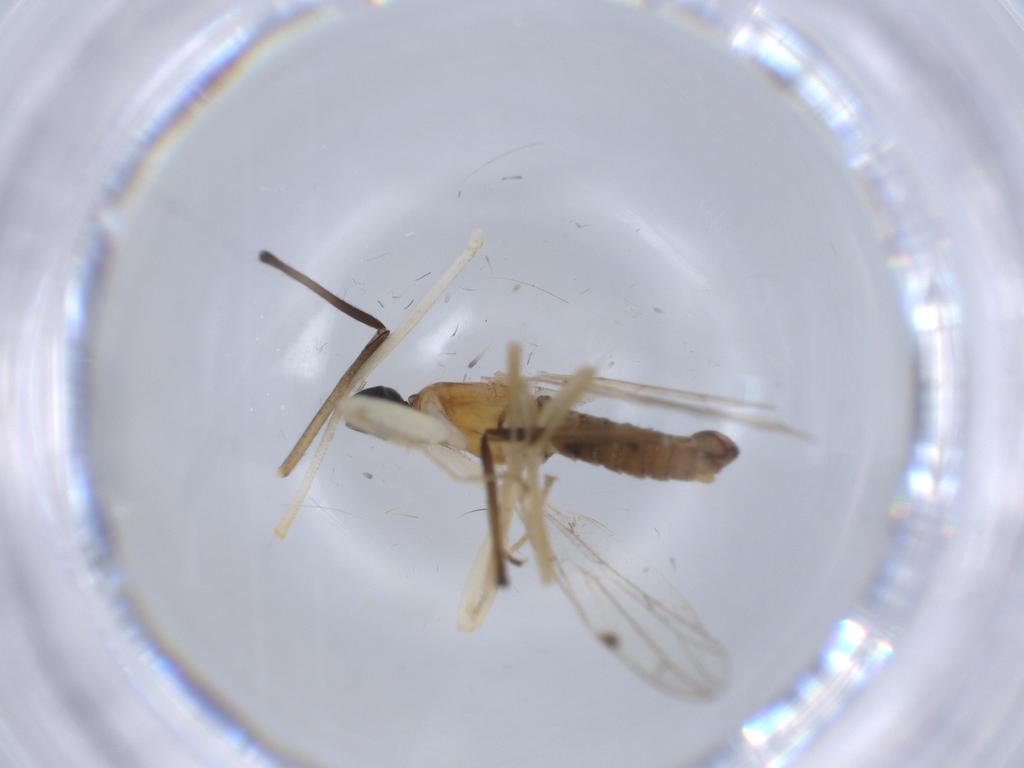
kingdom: Animalia
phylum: Arthropoda
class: Insecta
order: Diptera
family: Chironomidae
